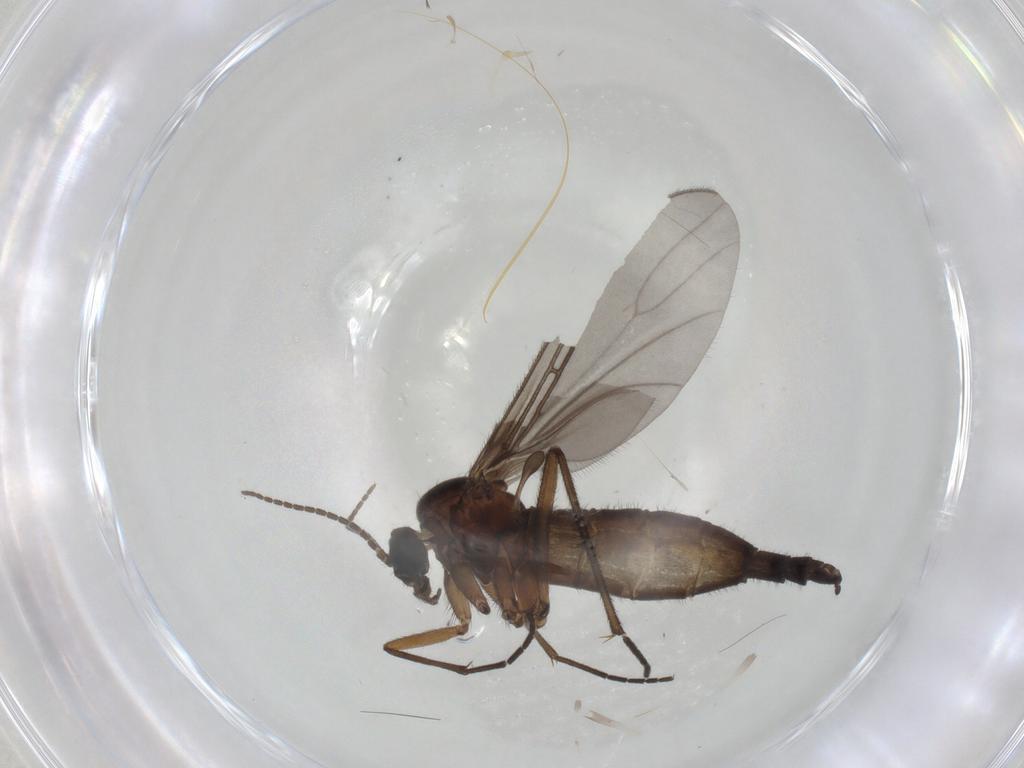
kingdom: Animalia
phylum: Arthropoda
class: Insecta
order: Diptera
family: Sciaridae
